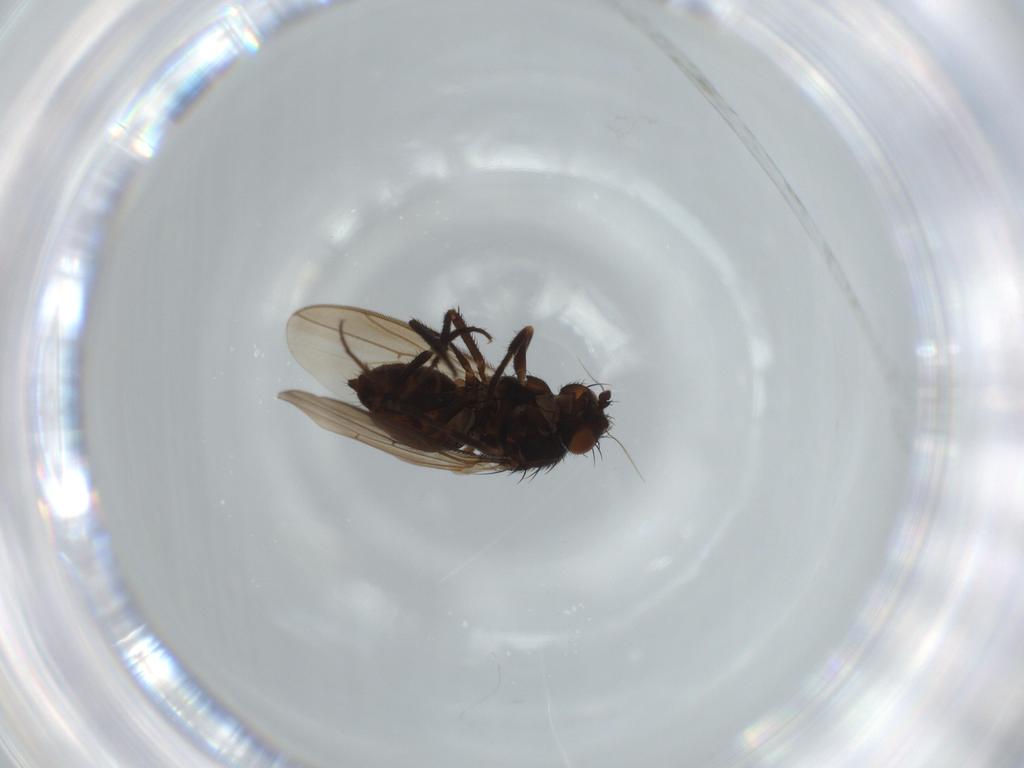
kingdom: Animalia
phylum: Arthropoda
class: Insecta
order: Diptera
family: Sphaeroceridae
